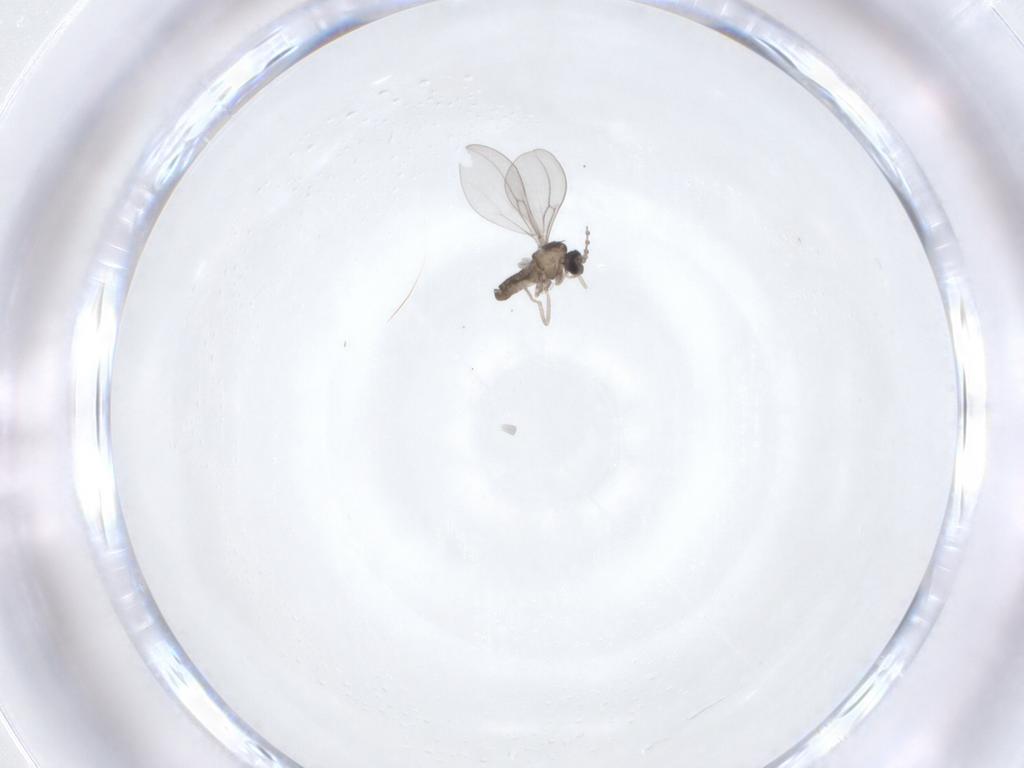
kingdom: Animalia
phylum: Arthropoda
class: Insecta
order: Diptera
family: Cecidomyiidae
